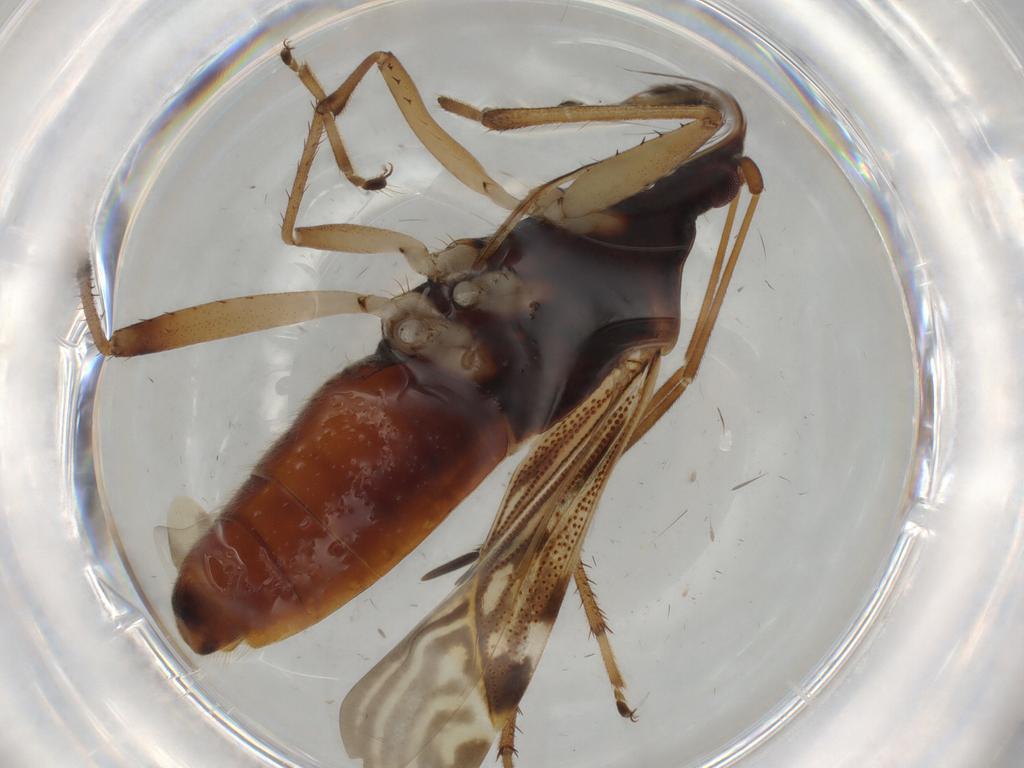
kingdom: Animalia
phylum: Arthropoda
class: Insecta
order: Hemiptera
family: Rhyparochromidae
